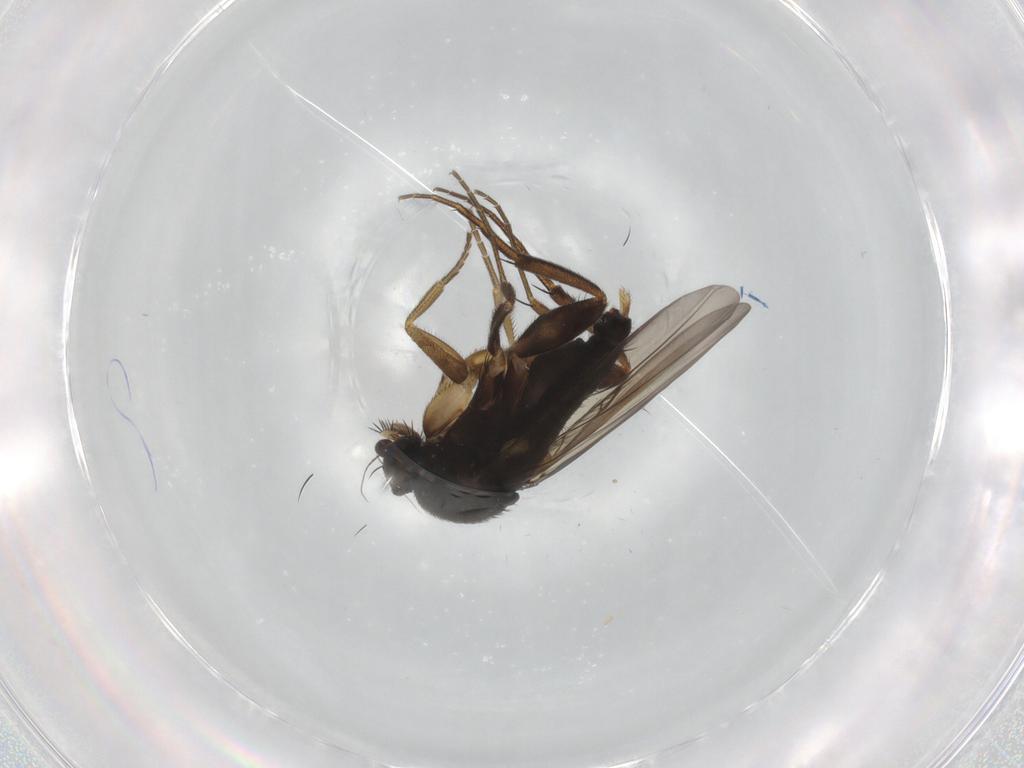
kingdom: Animalia
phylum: Arthropoda
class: Insecta
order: Diptera
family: Phoridae
